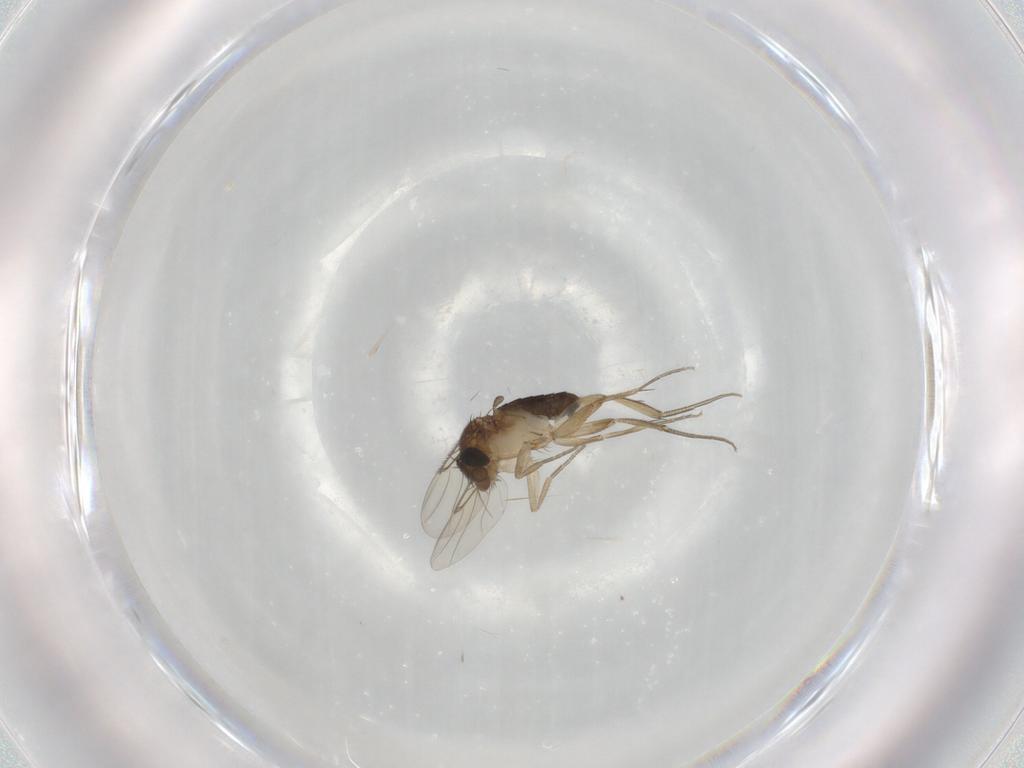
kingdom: Animalia
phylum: Arthropoda
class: Insecta
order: Diptera
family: Phoridae
